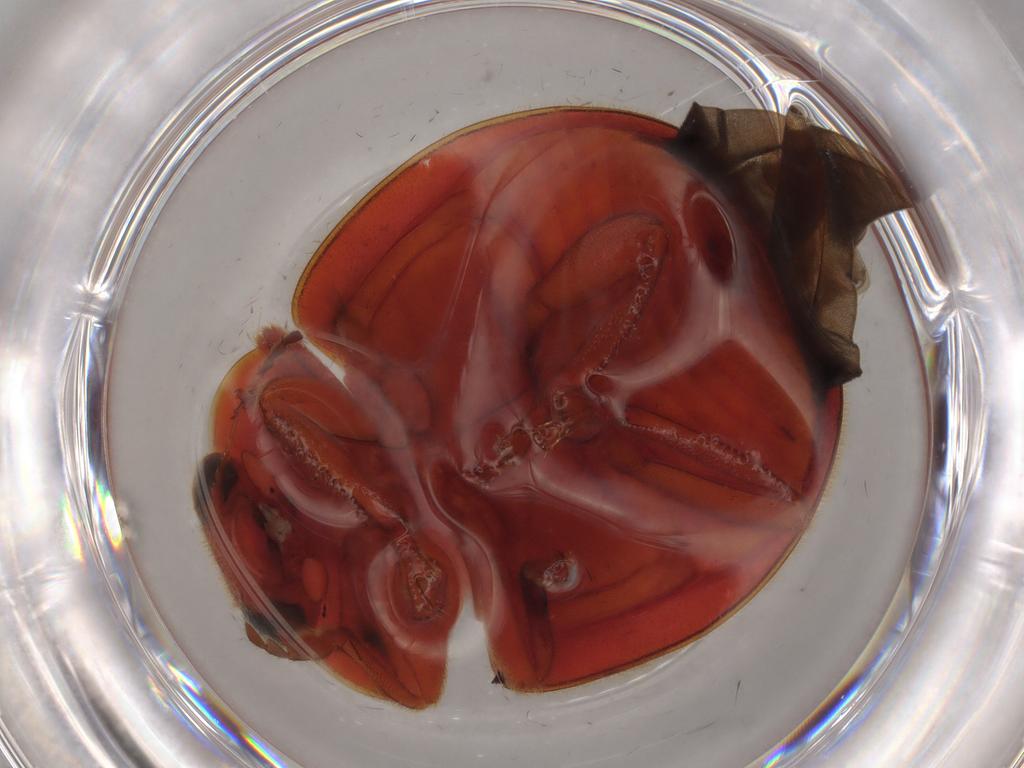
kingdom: Animalia
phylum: Arthropoda
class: Insecta
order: Coleoptera
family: Coccinellidae
